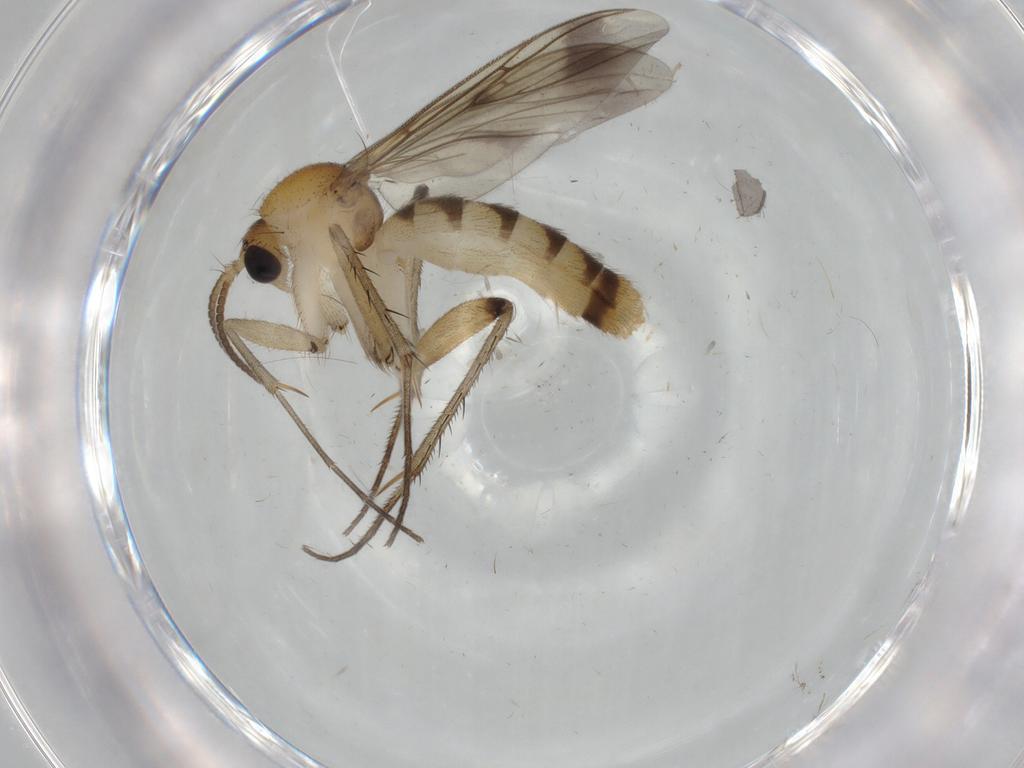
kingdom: Animalia
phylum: Arthropoda
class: Insecta
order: Diptera
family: Mycetophilidae
